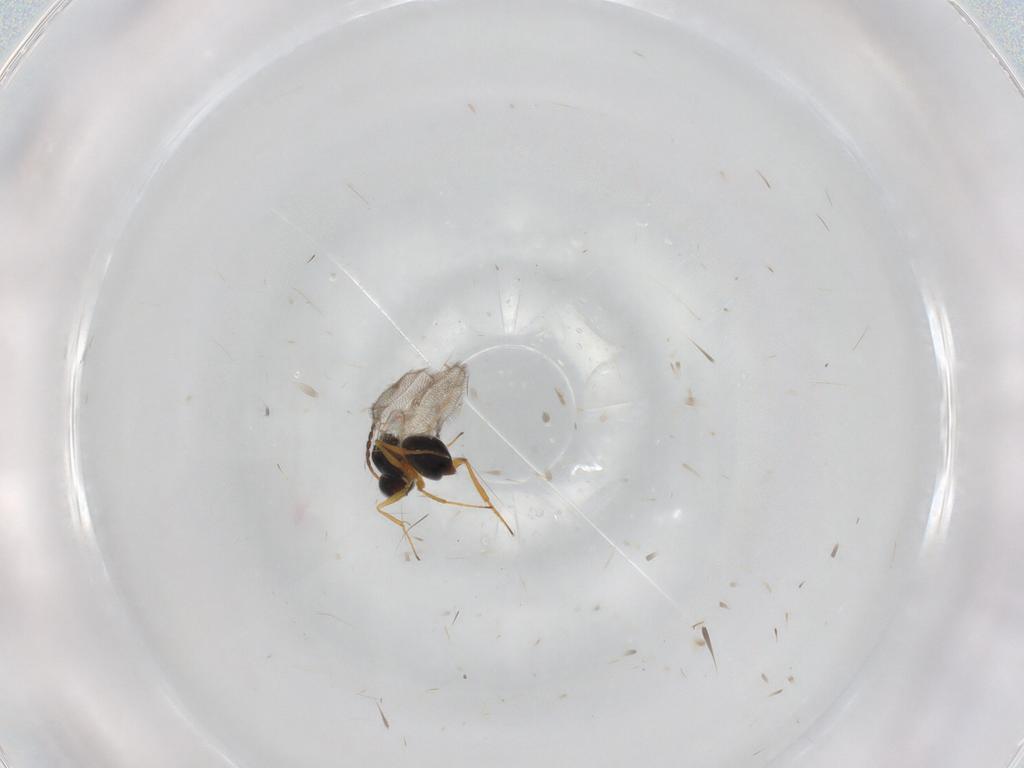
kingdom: Animalia
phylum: Arthropoda
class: Insecta
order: Hymenoptera
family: Figitidae
